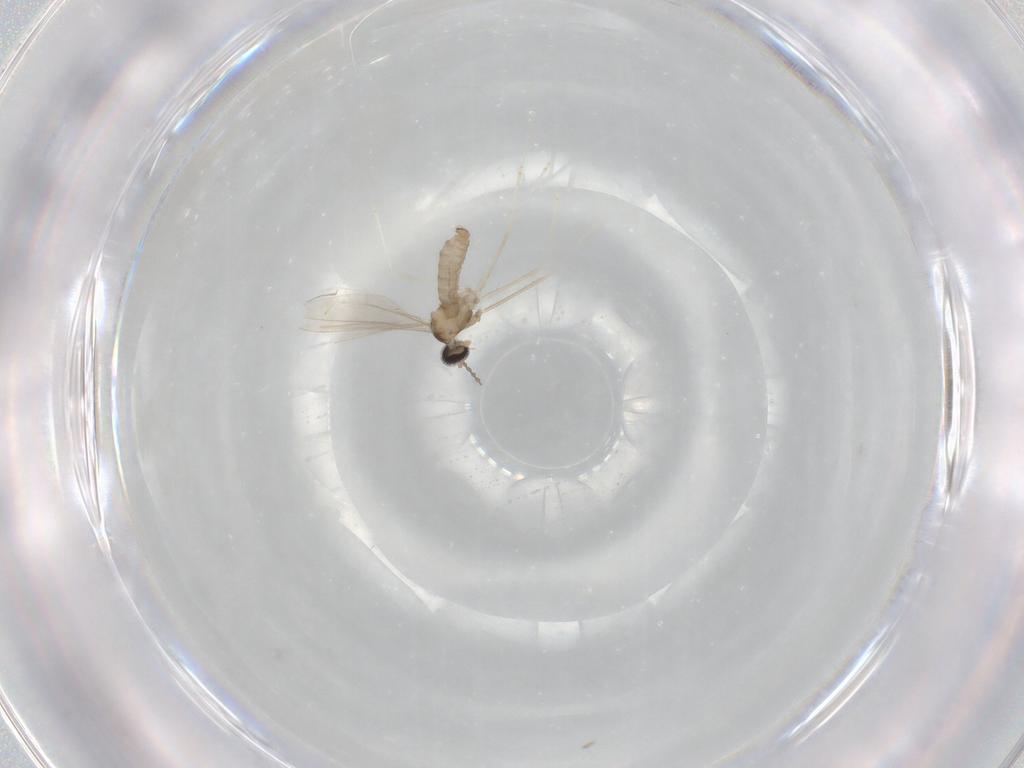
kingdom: Animalia
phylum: Arthropoda
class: Insecta
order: Diptera
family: Cecidomyiidae
